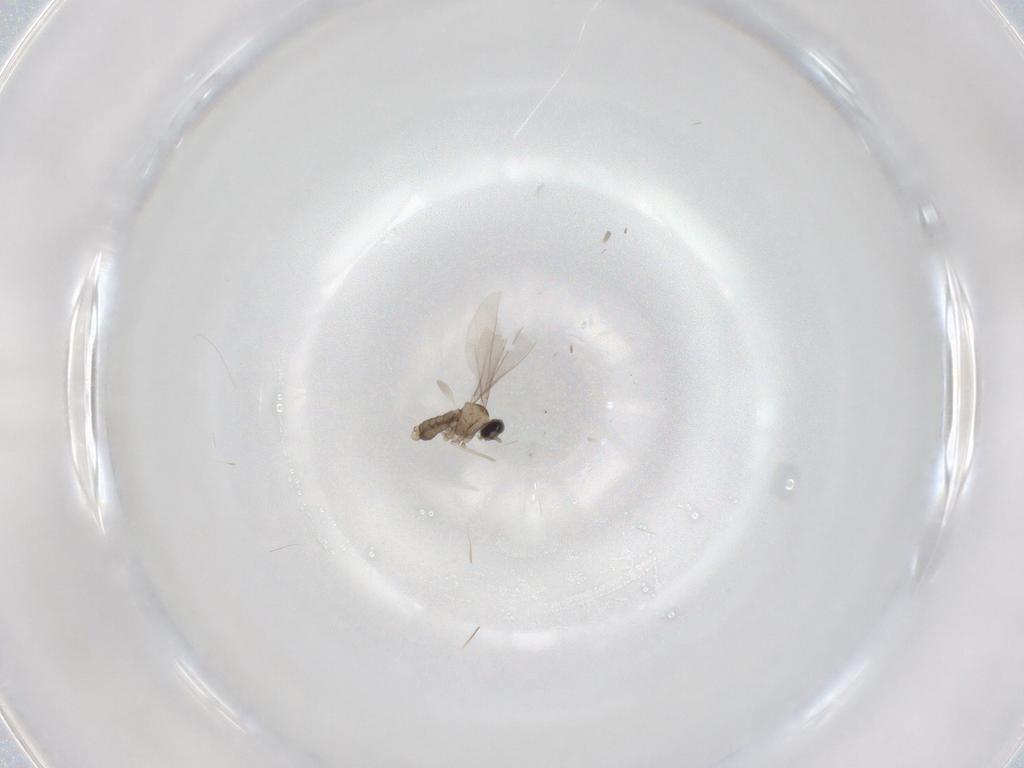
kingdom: Animalia
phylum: Arthropoda
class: Insecta
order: Diptera
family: Cecidomyiidae
